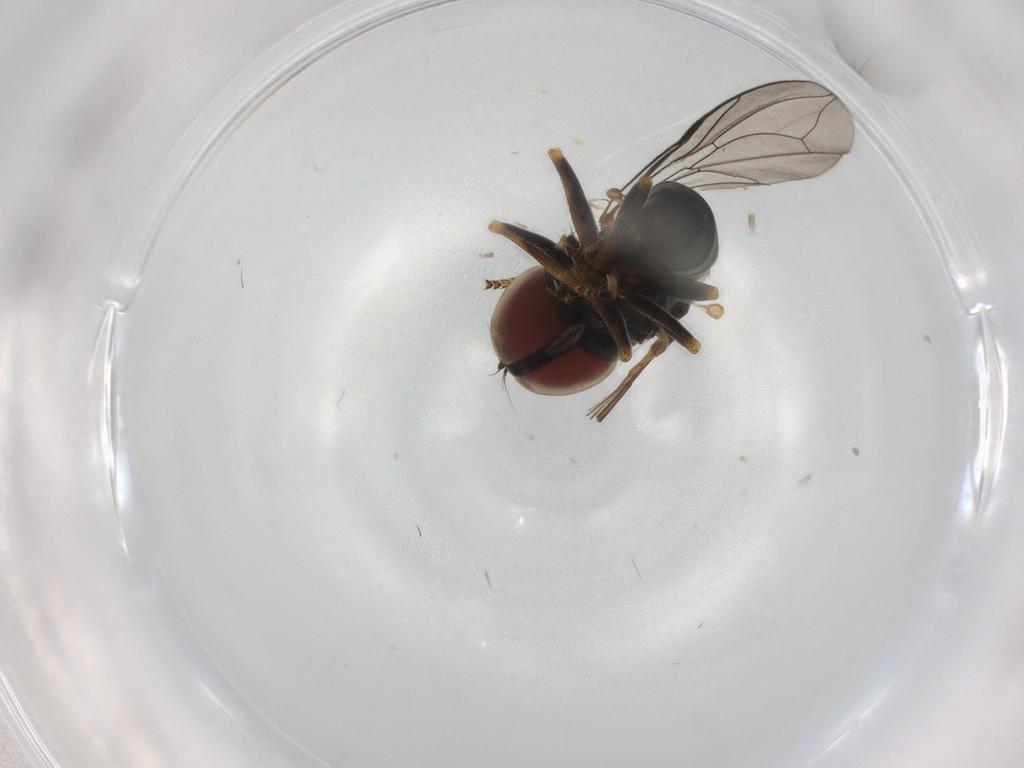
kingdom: Animalia
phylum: Arthropoda
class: Insecta
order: Diptera
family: Pipunculidae
